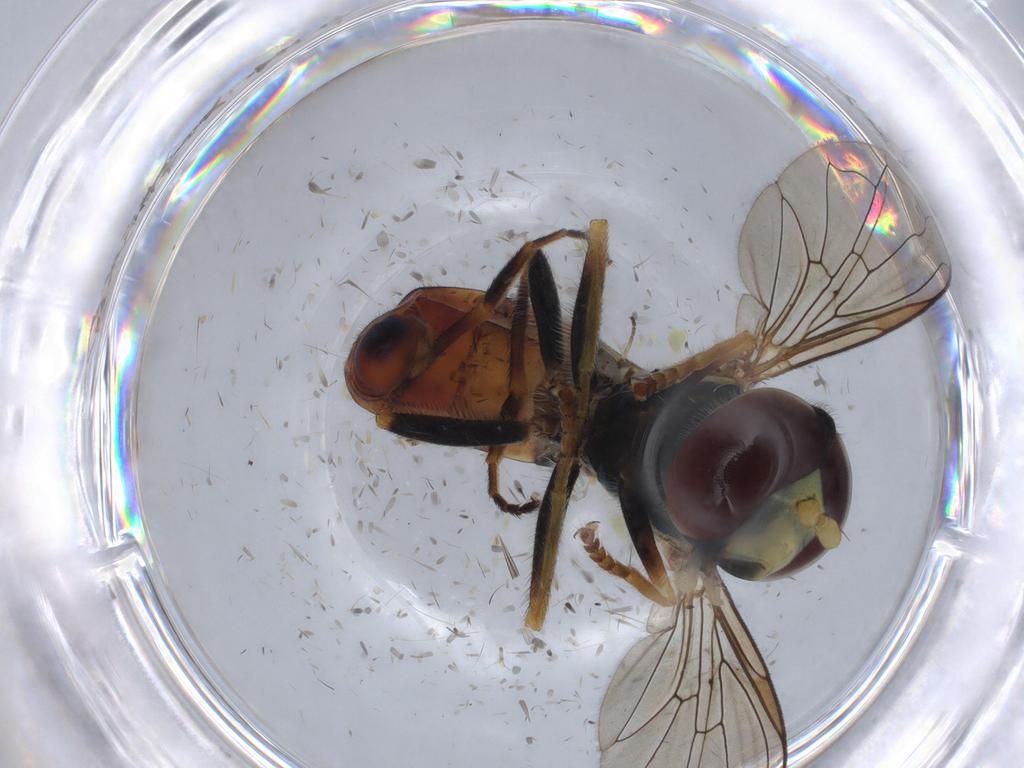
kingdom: Animalia
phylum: Arthropoda
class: Insecta
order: Diptera
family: Syrphidae
